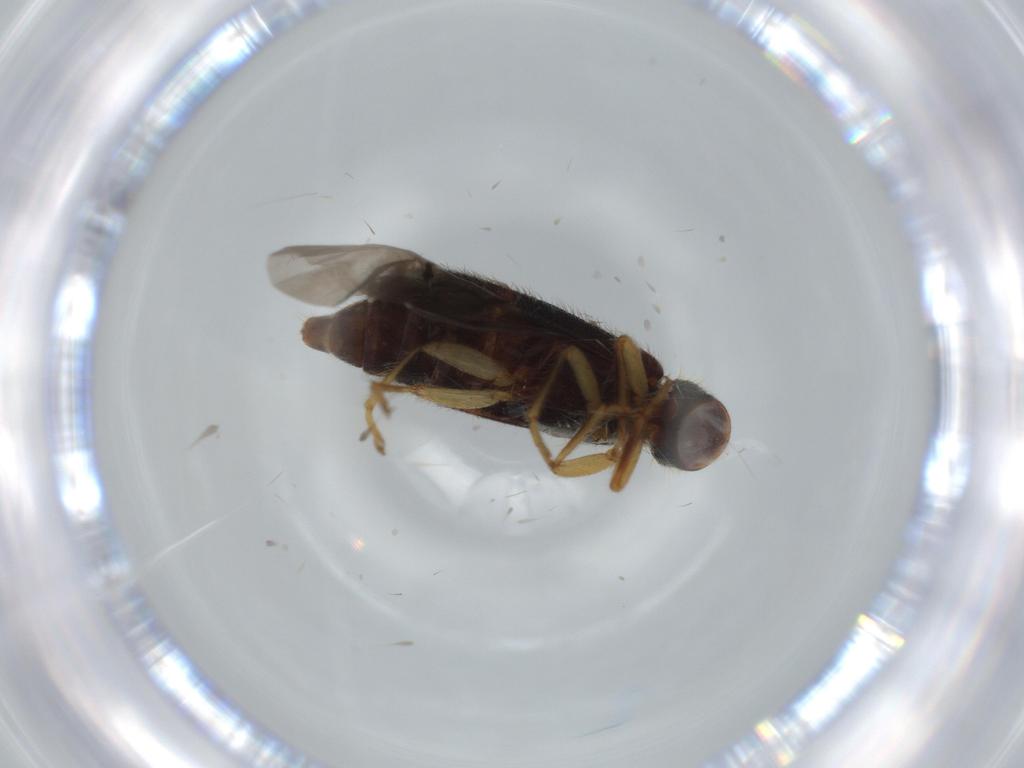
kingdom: Animalia
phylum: Arthropoda
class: Insecta
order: Coleoptera
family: Cleridae
